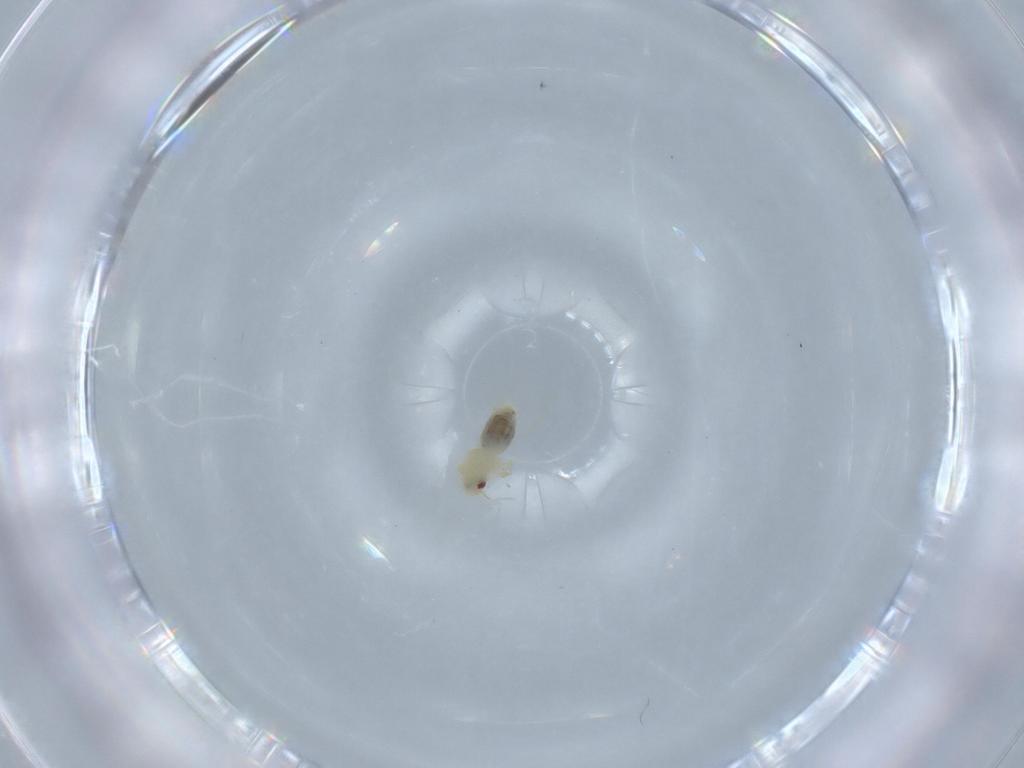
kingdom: Animalia
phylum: Arthropoda
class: Insecta
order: Hemiptera
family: Aleyrodidae
